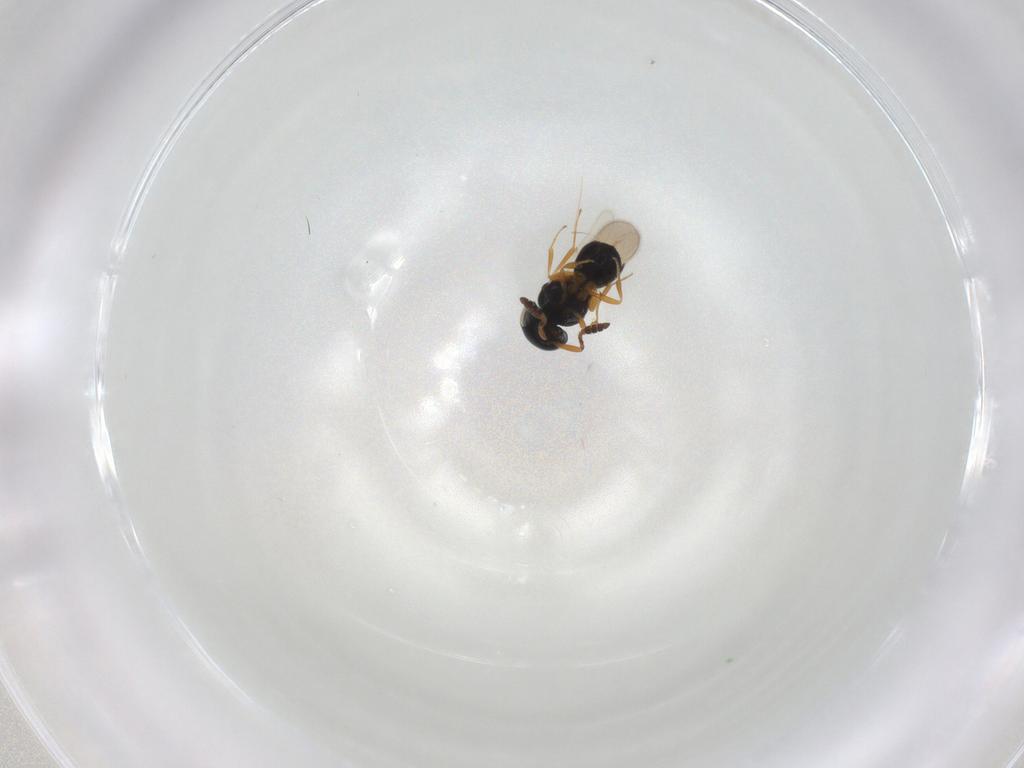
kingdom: Animalia
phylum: Arthropoda
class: Insecta
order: Hymenoptera
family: Scelionidae
